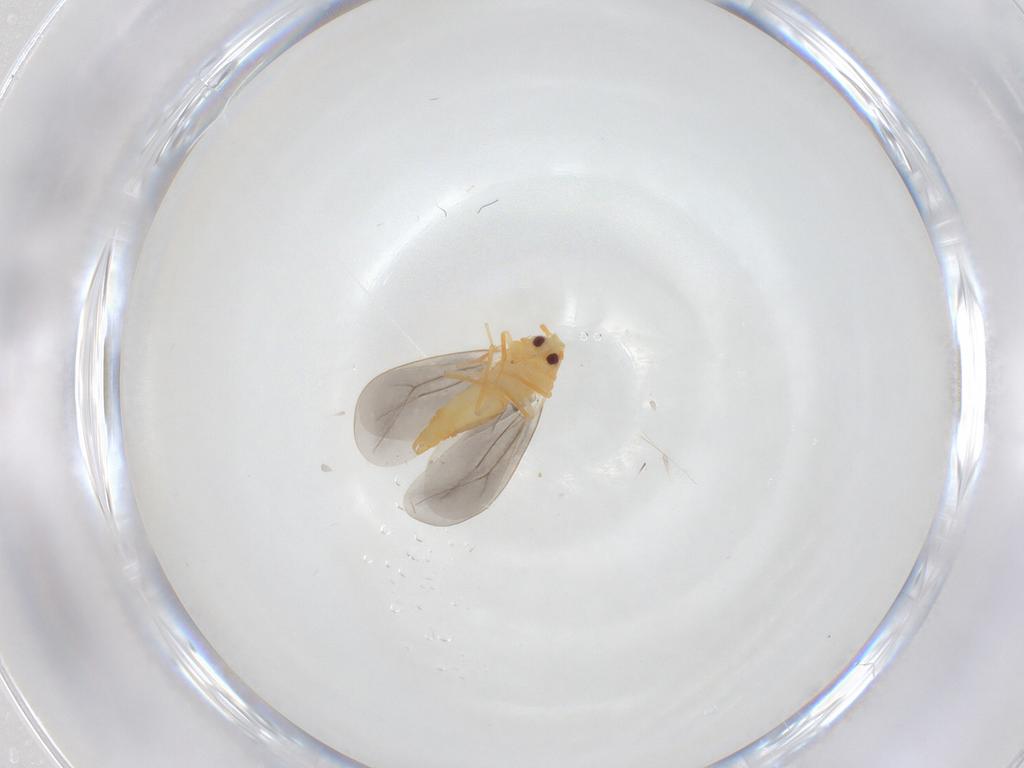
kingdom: Animalia
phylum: Arthropoda
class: Insecta
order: Hemiptera
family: Aleyrodidae
